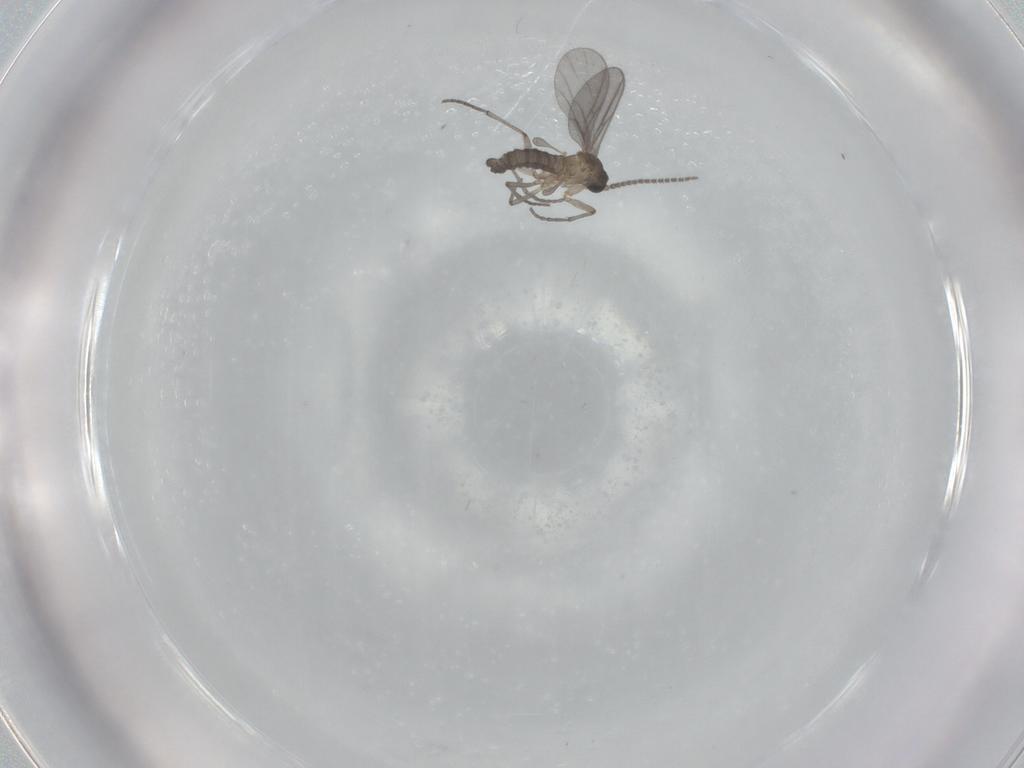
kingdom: Animalia
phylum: Arthropoda
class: Insecta
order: Diptera
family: Sciaridae
